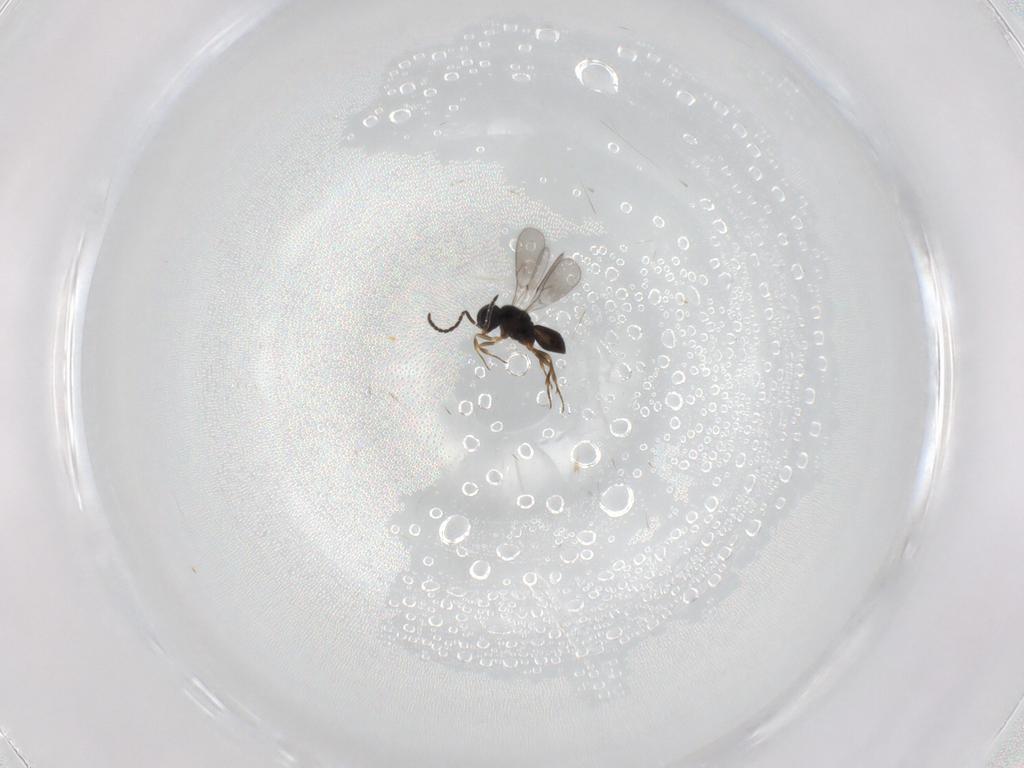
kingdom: Animalia
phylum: Arthropoda
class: Insecta
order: Hymenoptera
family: Scelionidae
